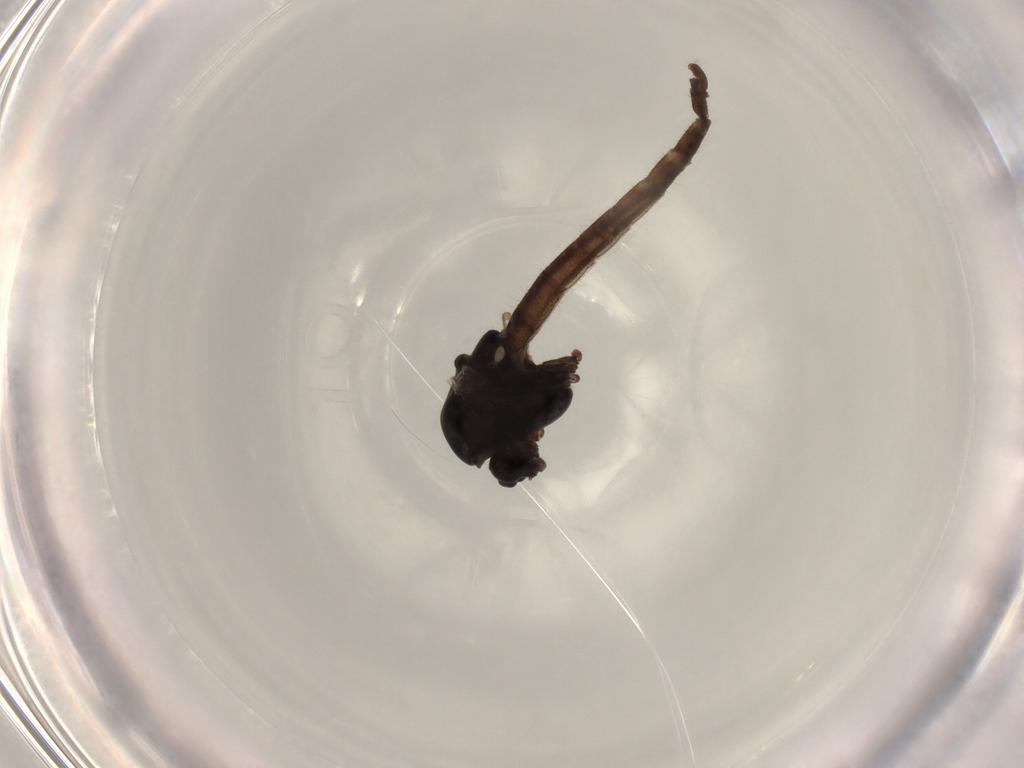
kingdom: Animalia
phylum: Arthropoda
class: Insecta
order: Diptera
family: Chironomidae
